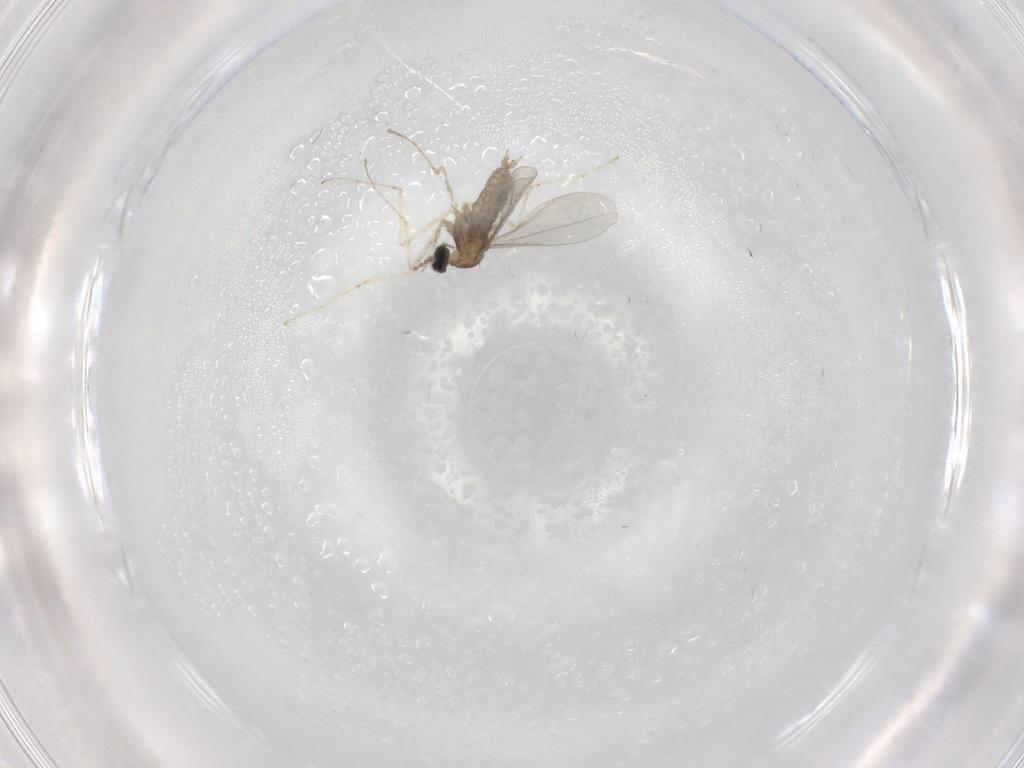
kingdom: Animalia
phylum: Arthropoda
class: Insecta
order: Diptera
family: Cecidomyiidae
